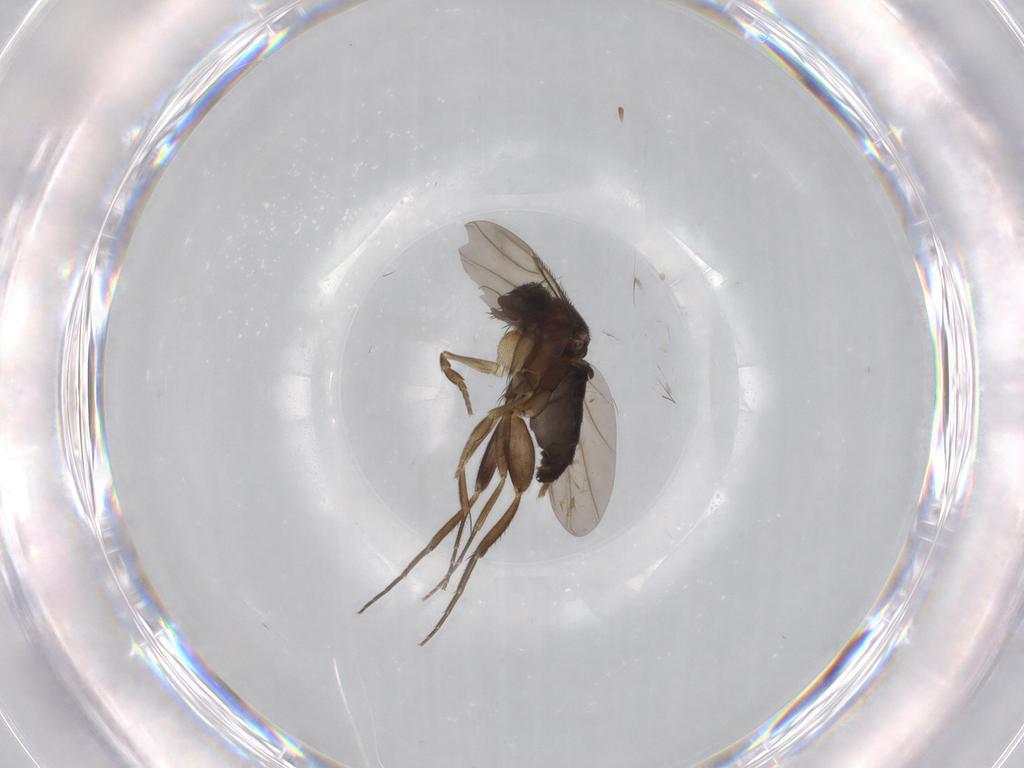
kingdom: Animalia
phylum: Arthropoda
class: Insecta
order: Diptera
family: Phoridae
